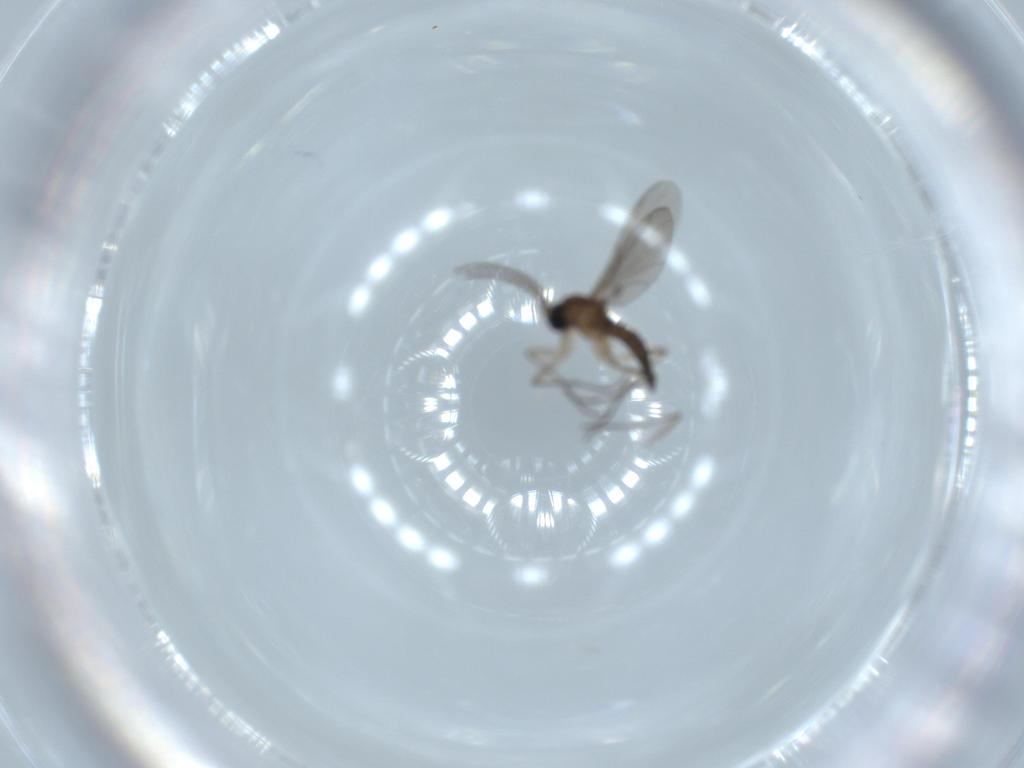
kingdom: Animalia
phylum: Arthropoda
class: Insecta
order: Diptera
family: Sciaridae
